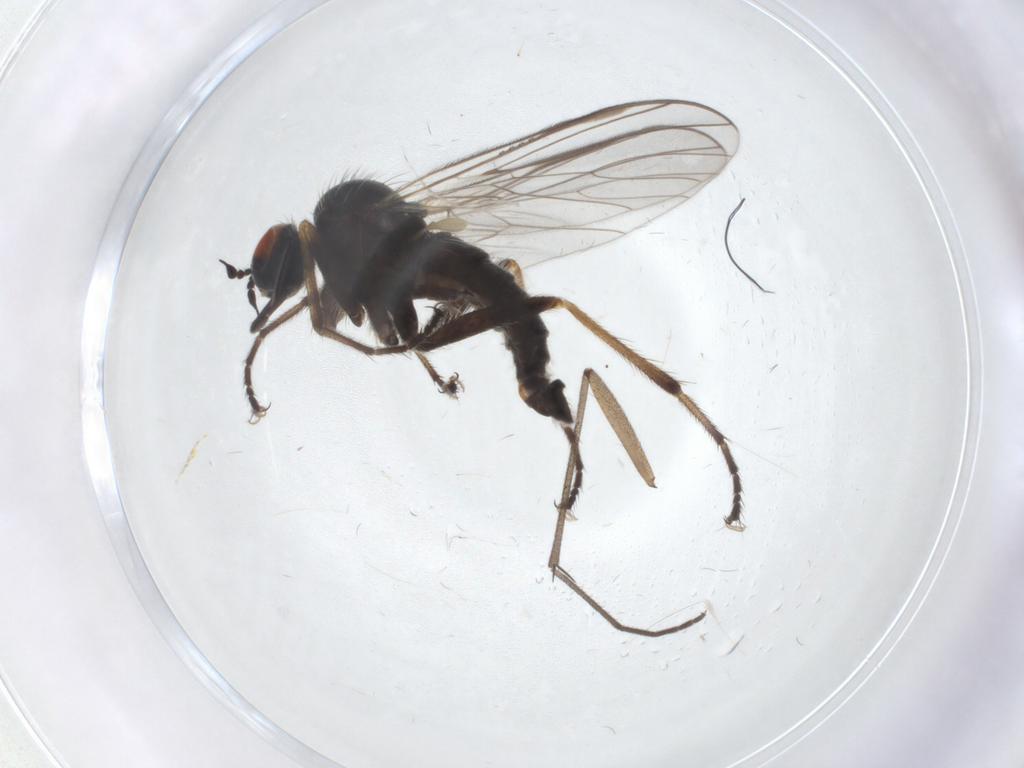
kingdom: Animalia
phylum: Arthropoda
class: Insecta
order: Diptera
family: Empididae
